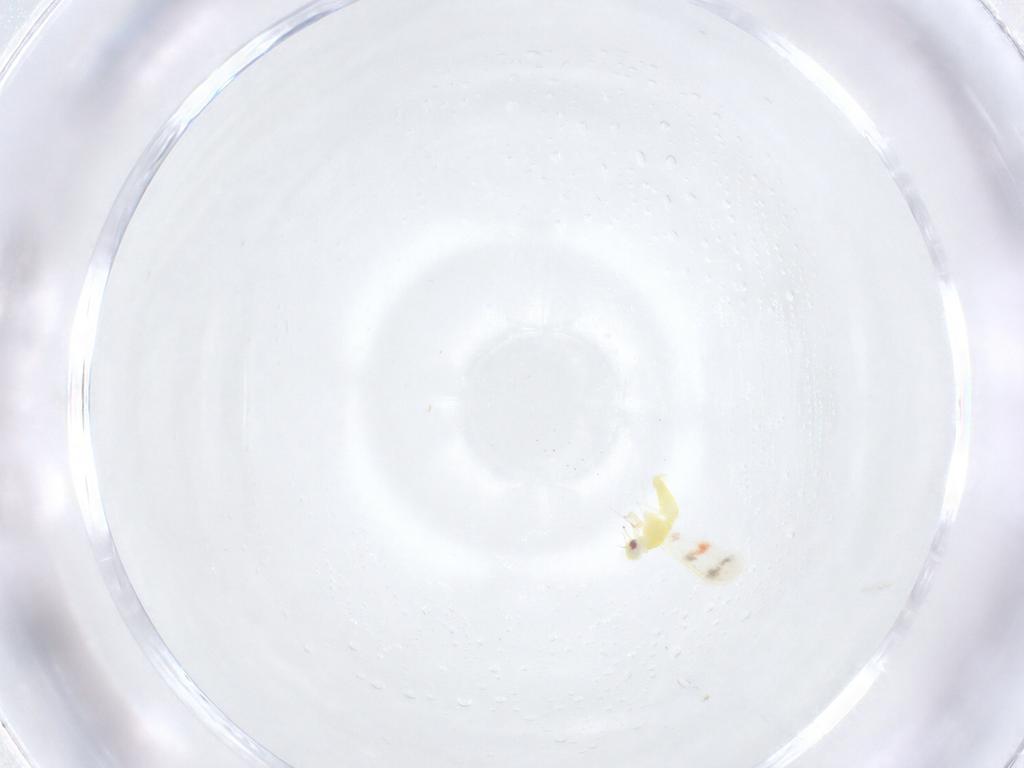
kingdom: Animalia
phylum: Arthropoda
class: Insecta
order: Hemiptera
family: Aleyrodidae
